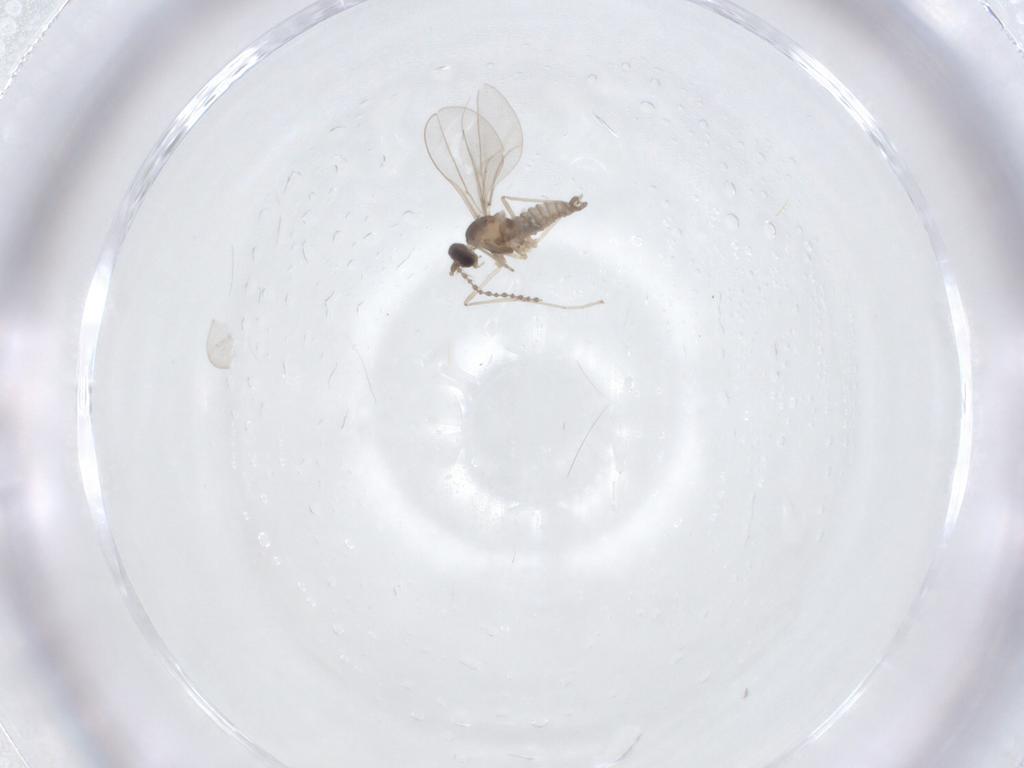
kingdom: Animalia
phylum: Arthropoda
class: Insecta
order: Diptera
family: Cecidomyiidae
